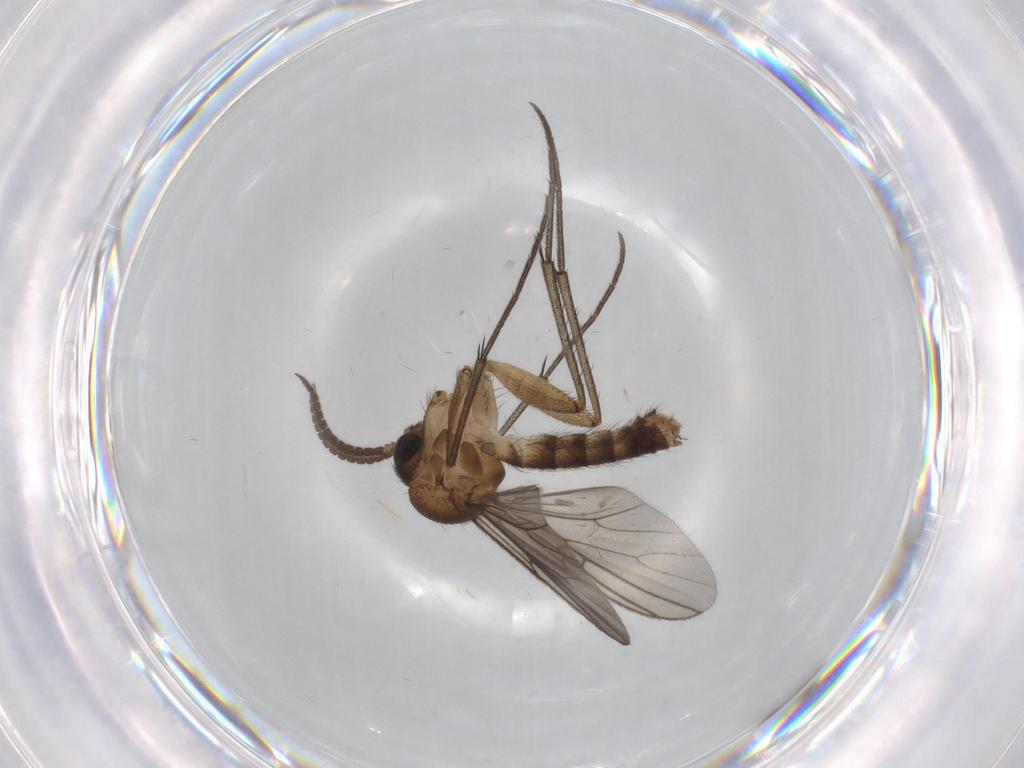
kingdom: Animalia
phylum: Arthropoda
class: Insecta
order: Diptera
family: Mycetophilidae
